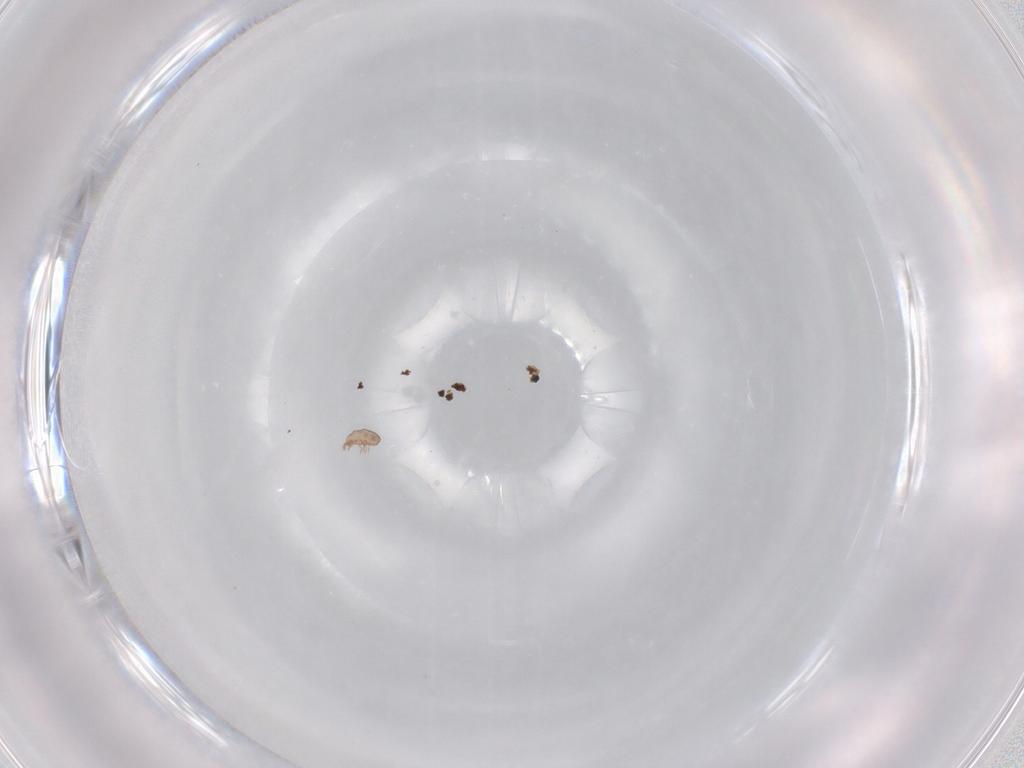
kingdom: Animalia
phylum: Arthropoda
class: Arachnida
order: Sarcoptiformes
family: Eremaeidae
